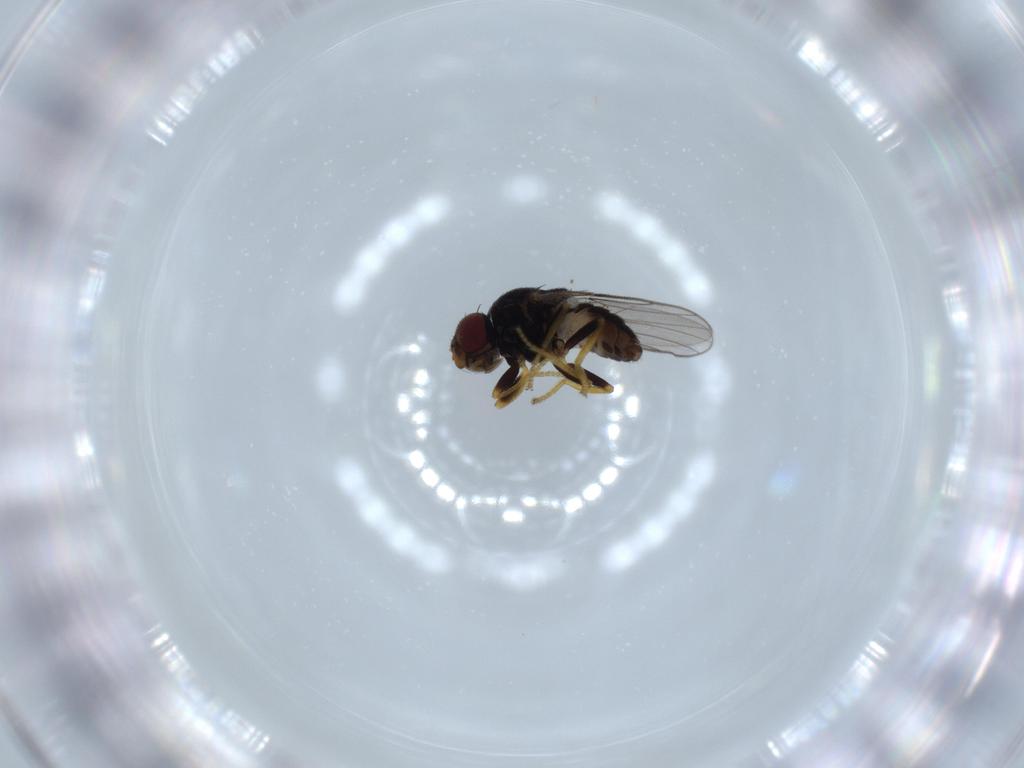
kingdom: Animalia
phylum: Arthropoda
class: Insecta
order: Diptera
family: Chloropidae
